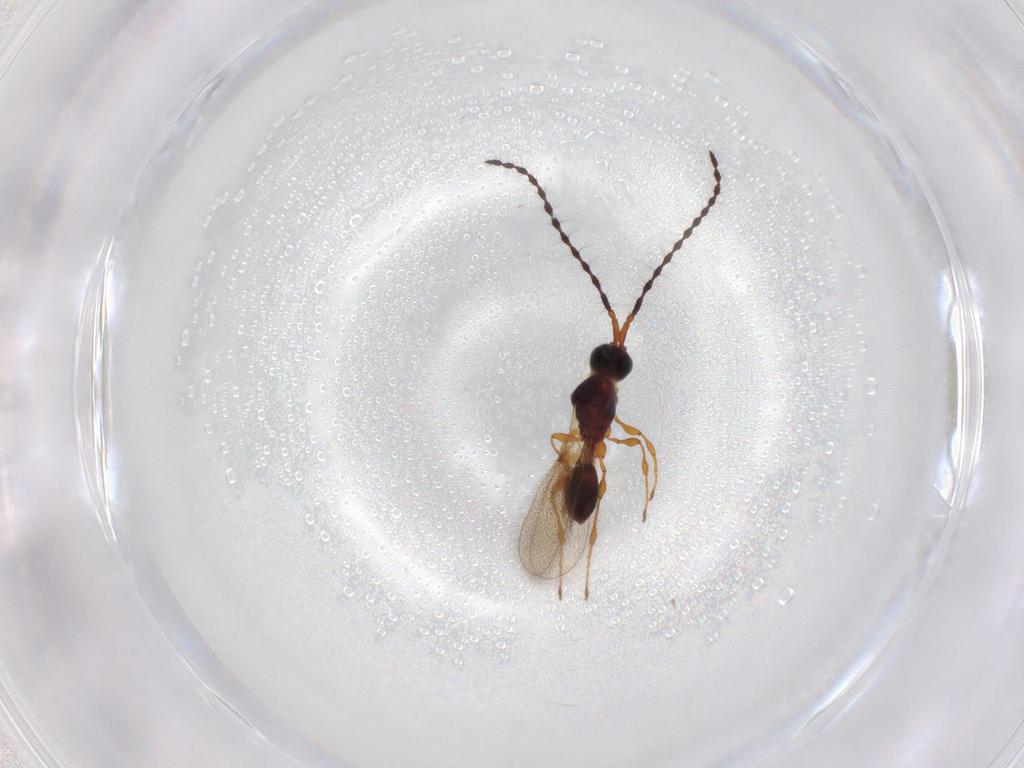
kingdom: Animalia
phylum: Arthropoda
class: Insecta
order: Hymenoptera
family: Diapriidae
